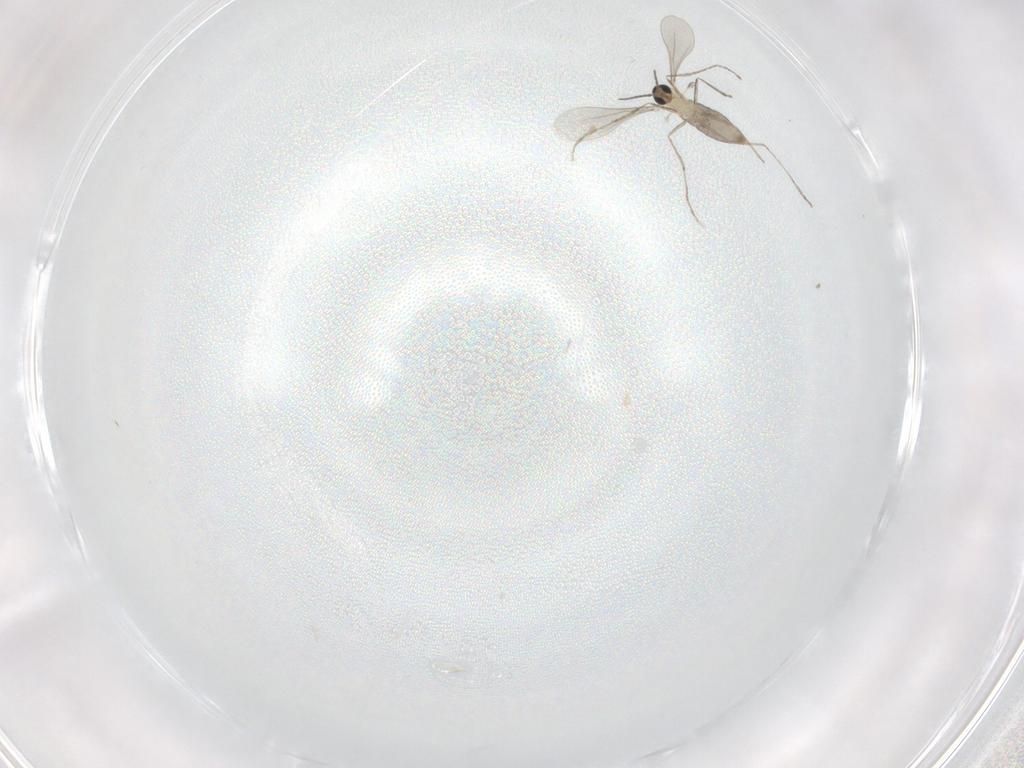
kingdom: Animalia
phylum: Arthropoda
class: Insecta
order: Diptera
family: Phoridae
